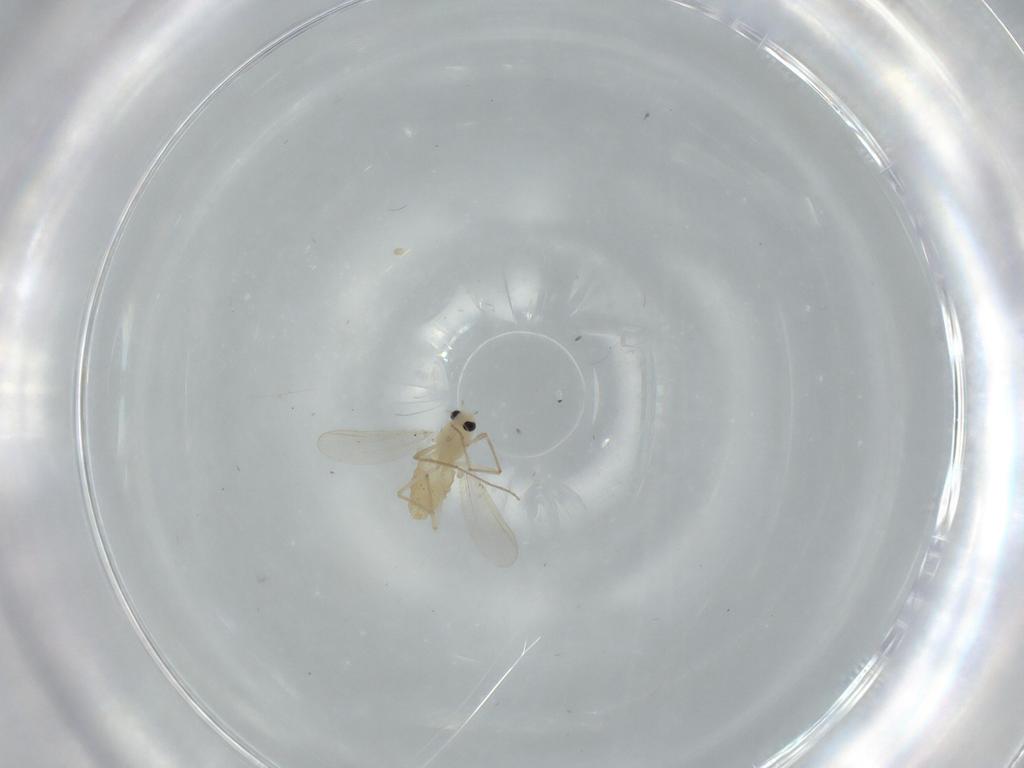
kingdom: Animalia
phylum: Arthropoda
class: Insecta
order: Diptera
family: Chironomidae
